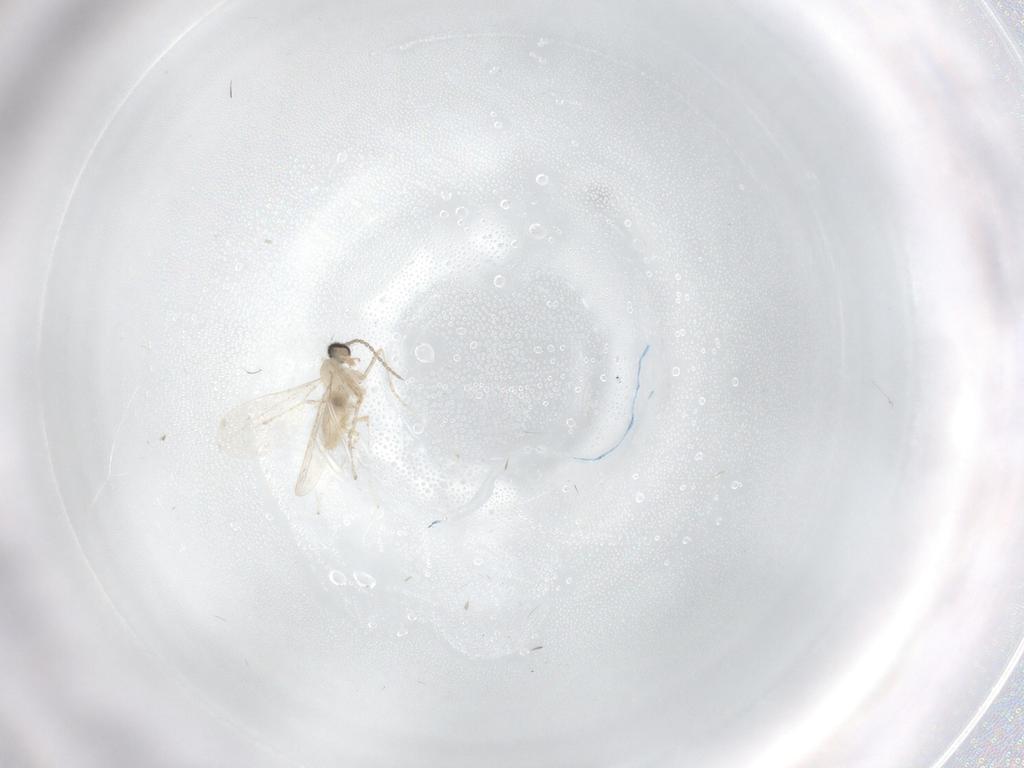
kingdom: Animalia
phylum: Arthropoda
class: Insecta
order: Diptera
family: Cecidomyiidae
